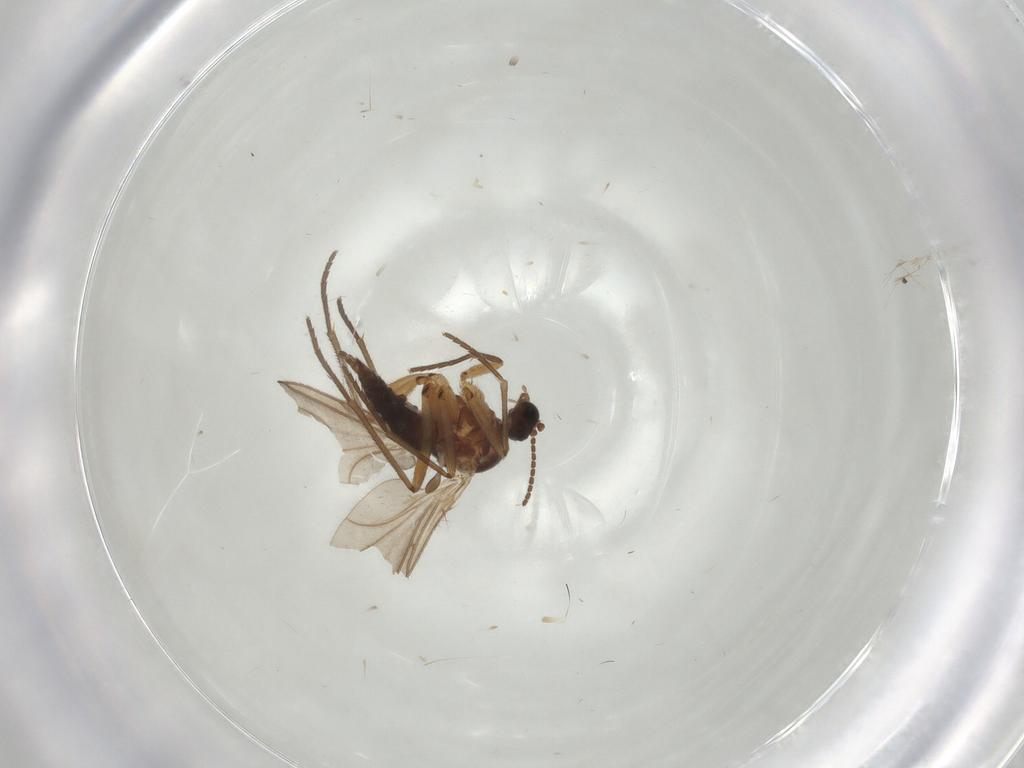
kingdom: Animalia
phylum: Arthropoda
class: Insecta
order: Diptera
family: Sciaridae
